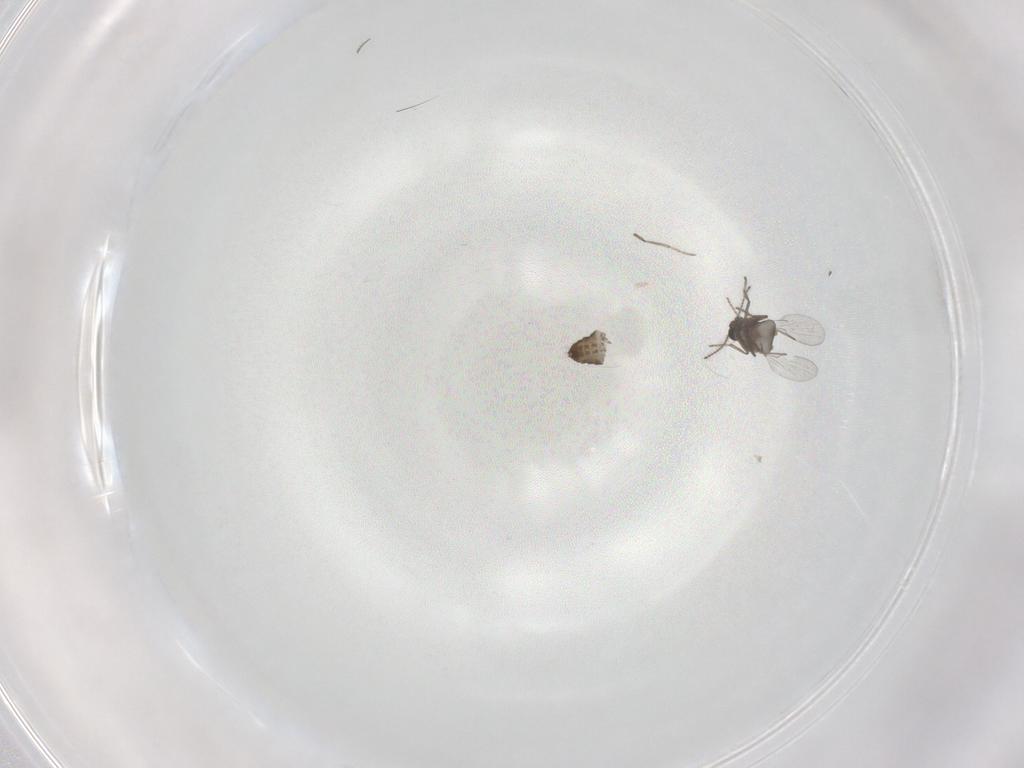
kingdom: Animalia
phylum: Arthropoda
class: Insecta
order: Diptera
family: Ceratopogonidae
